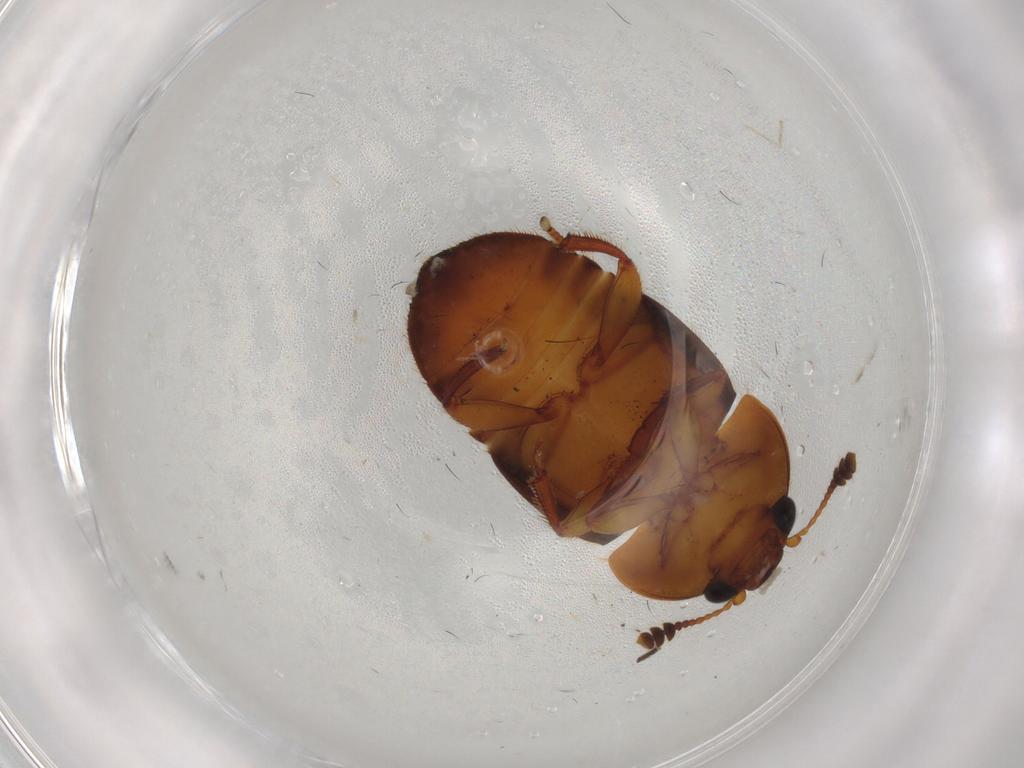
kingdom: Animalia
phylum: Arthropoda
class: Insecta
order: Coleoptera
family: Nitidulidae
